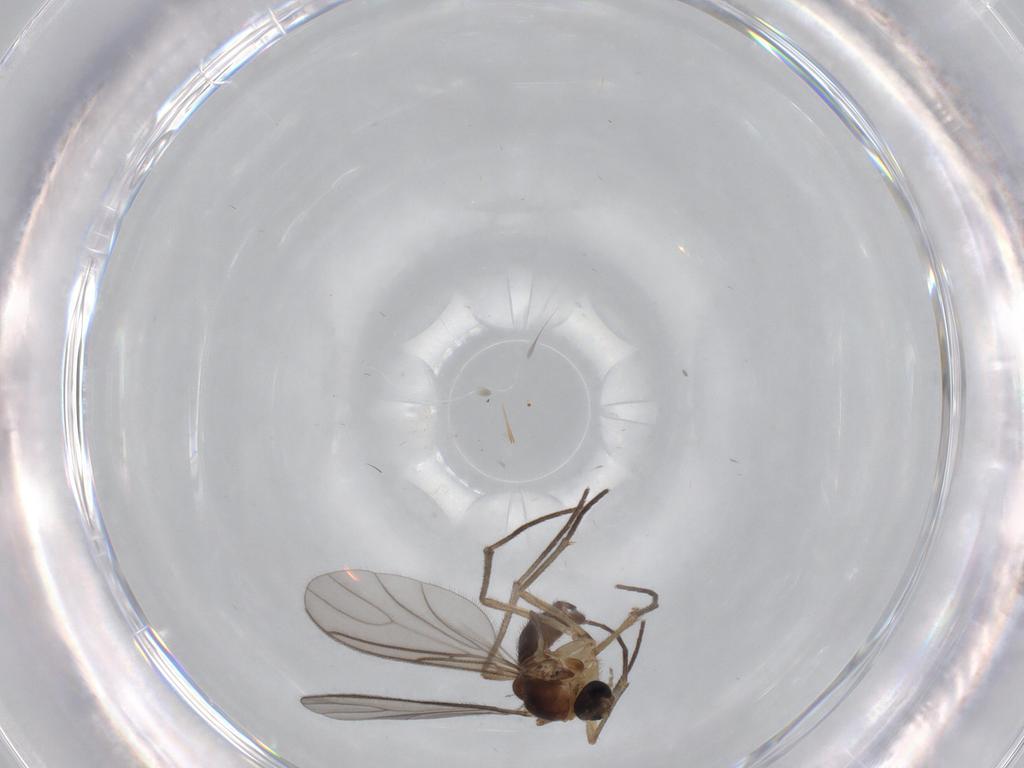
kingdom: Animalia
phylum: Arthropoda
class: Insecta
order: Diptera
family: Sciaridae
